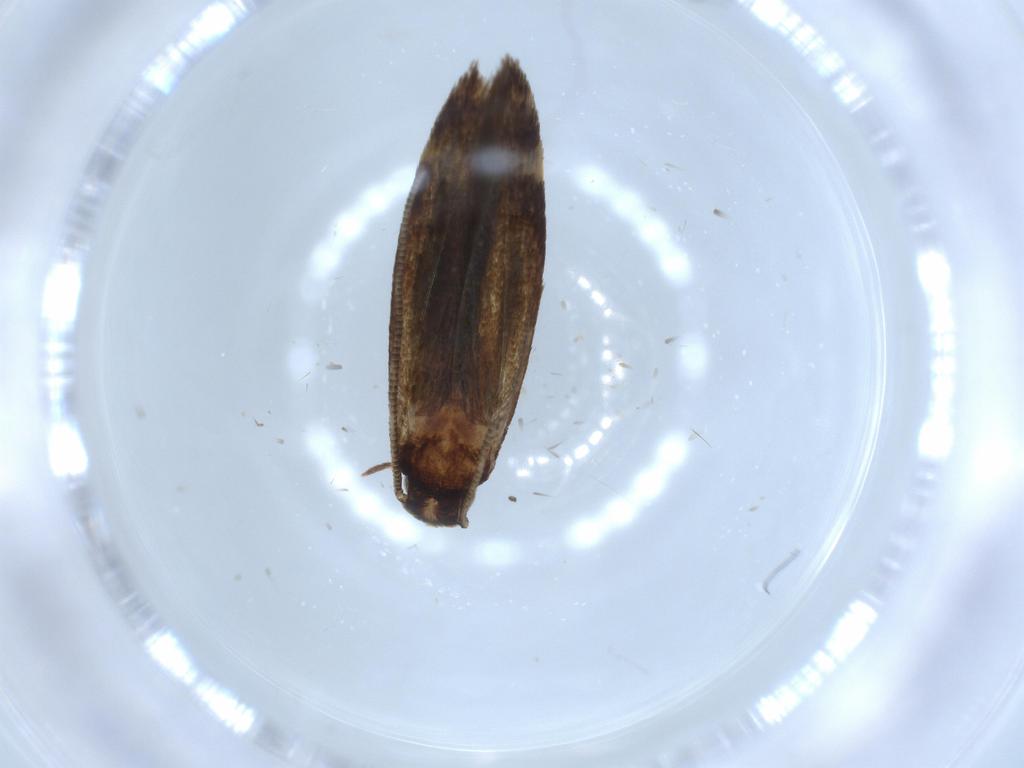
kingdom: Animalia
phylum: Arthropoda
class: Insecta
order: Lepidoptera
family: Tineidae
